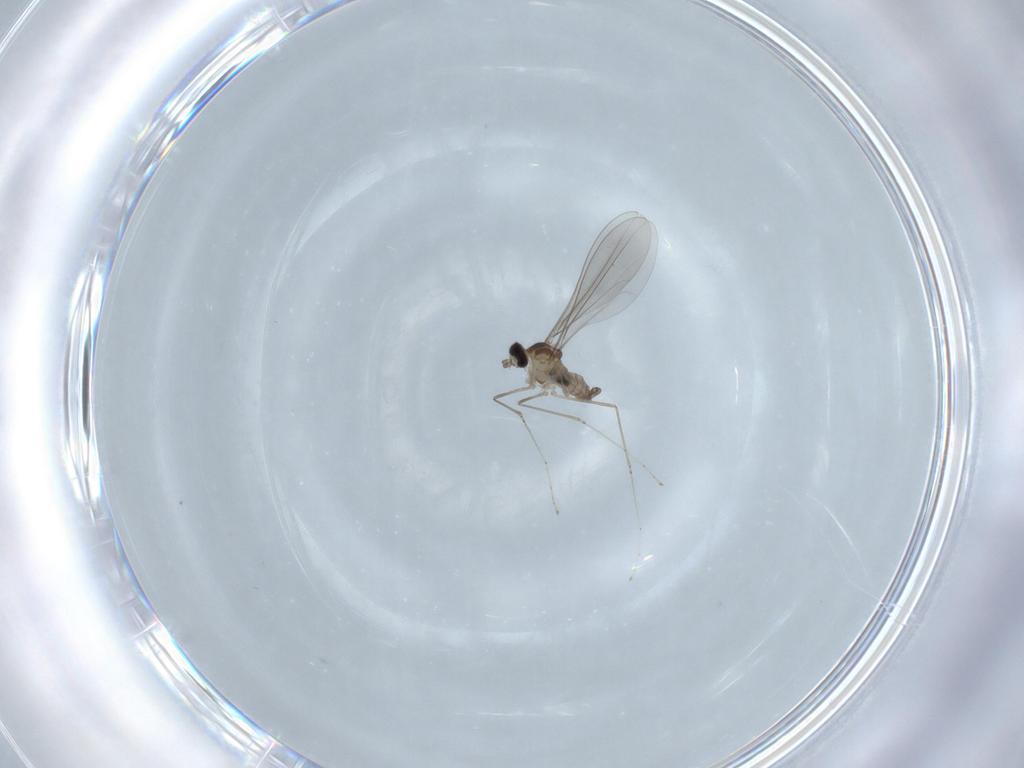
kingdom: Animalia
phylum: Arthropoda
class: Insecta
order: Diptera
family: Cecidomyiidae
